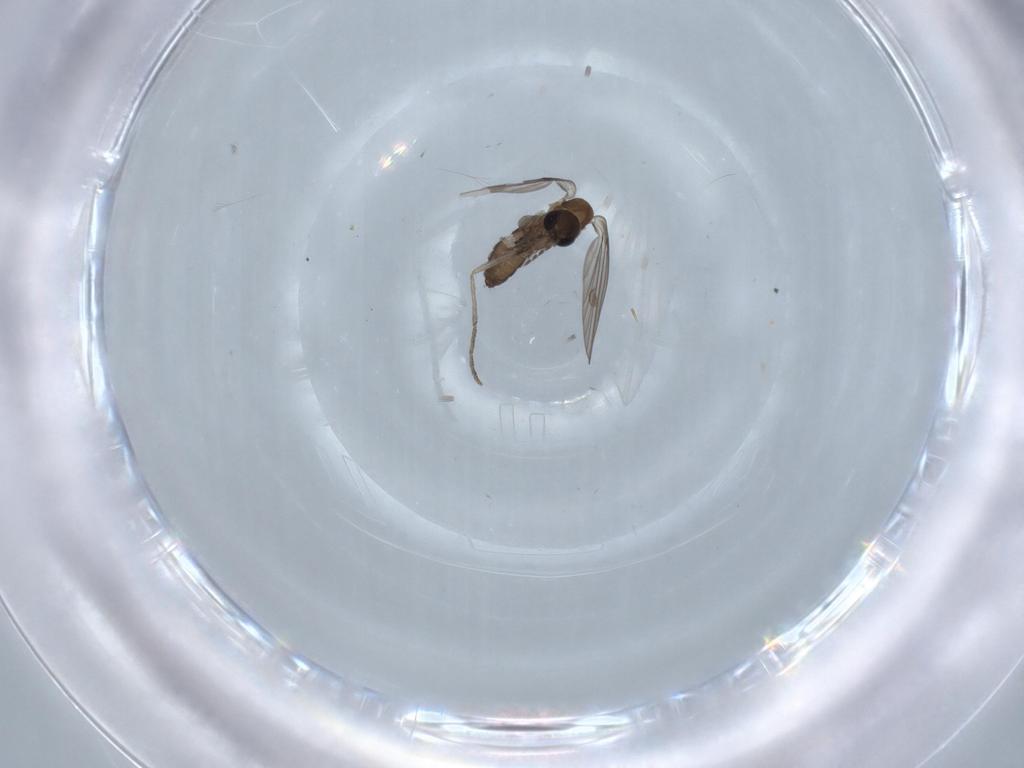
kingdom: Animalia
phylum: Arthropoda
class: Insecta
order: Diptera
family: Psychodidae
